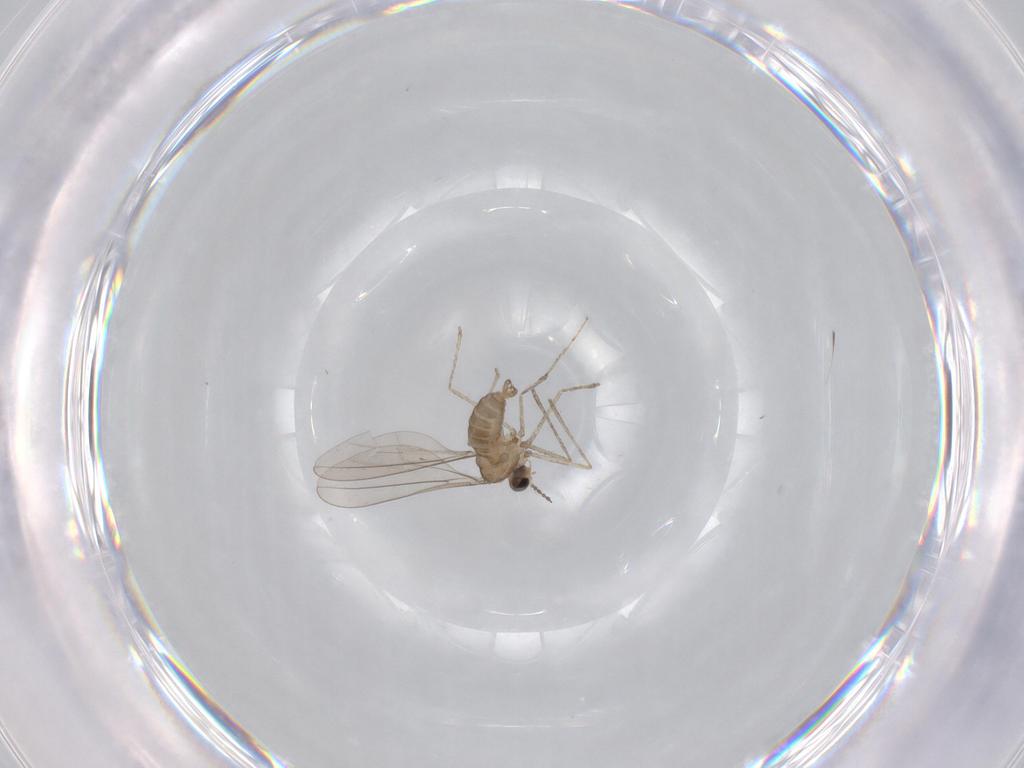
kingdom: Animalia
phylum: Arthropoda
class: Insecta
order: Diptera
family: Cecidomyiidae
